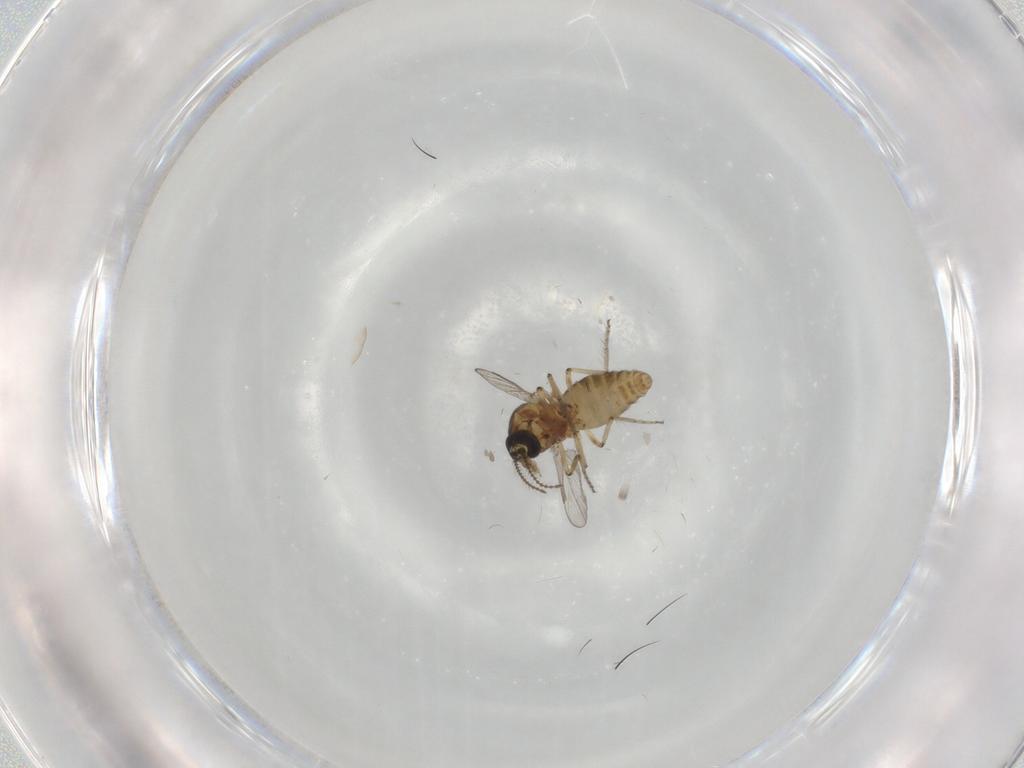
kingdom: Animalia
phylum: Arthropoda
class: Insecta
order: Diptera
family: Ceratopogonidae
